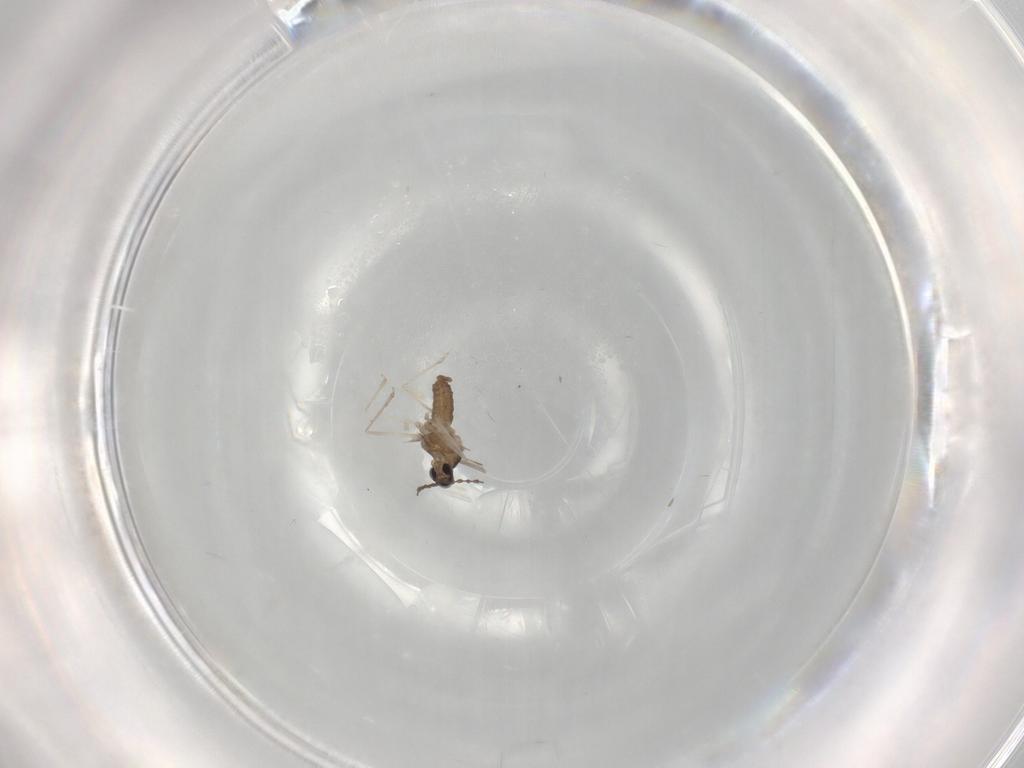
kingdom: Animalia
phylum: Arthropoda
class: Insecta
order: Diptera
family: Cecidomyiidae
